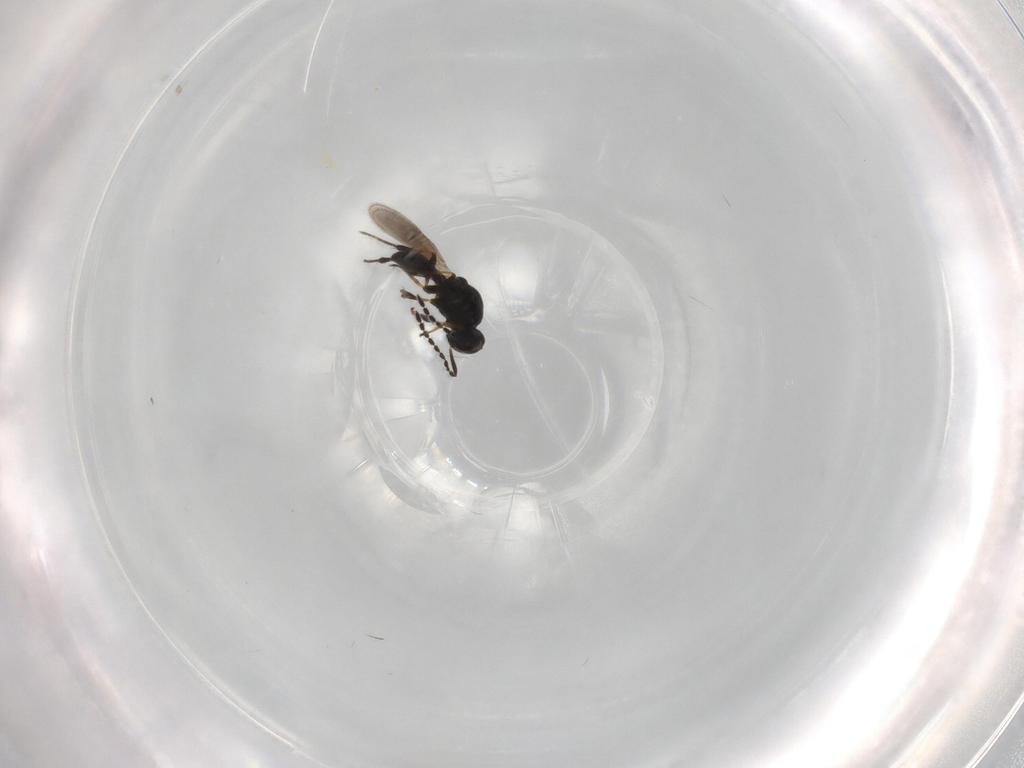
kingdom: Animalia
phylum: Arthropoda
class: Insecta
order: Hymenoptera
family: Platygastridae
